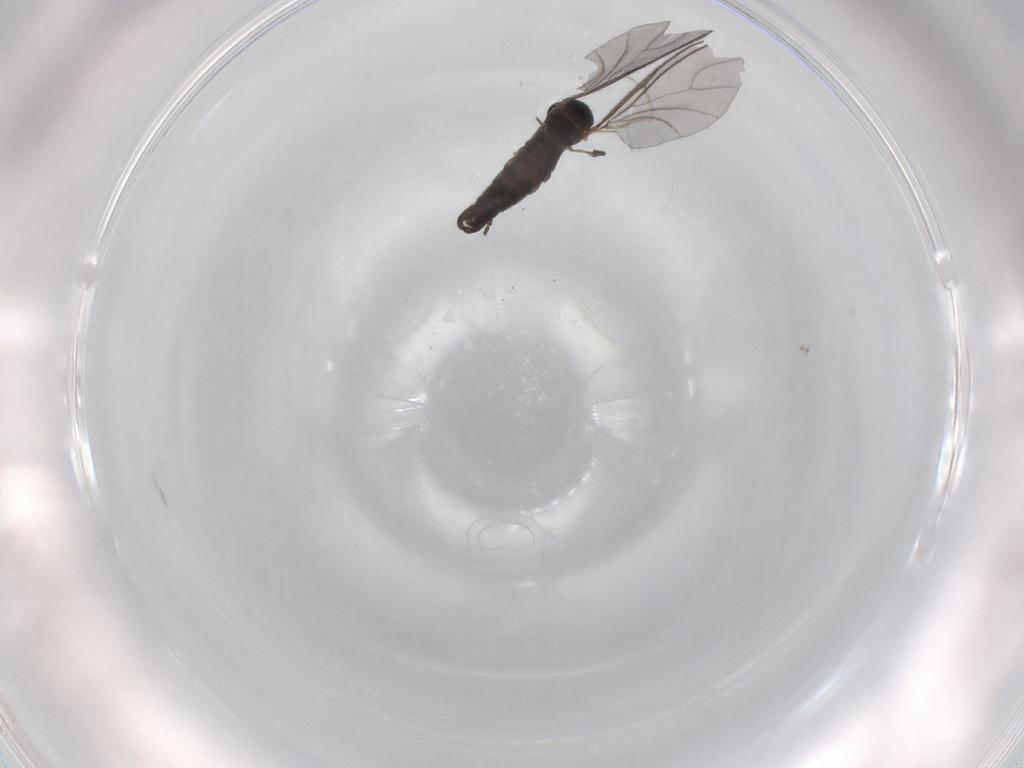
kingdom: Animalia
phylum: Arthropoda
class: Insecta
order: Diptera
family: Sciaridae
